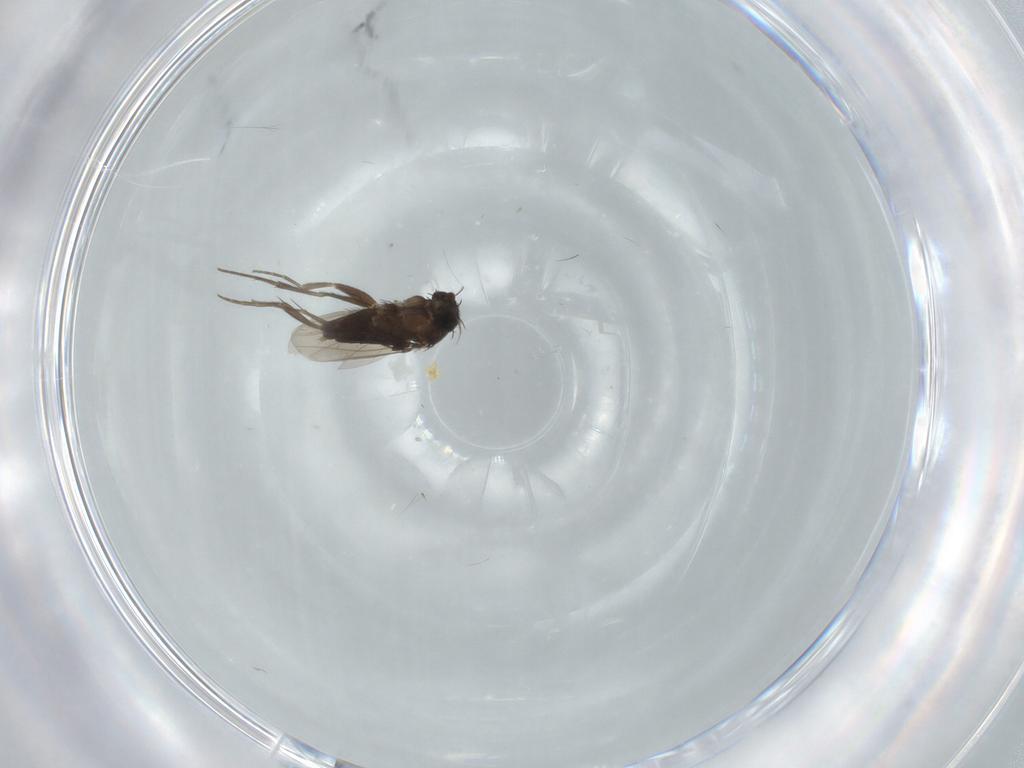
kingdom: Animalia
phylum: Arthropoda
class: Insecta
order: Diptera
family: Phoridae
